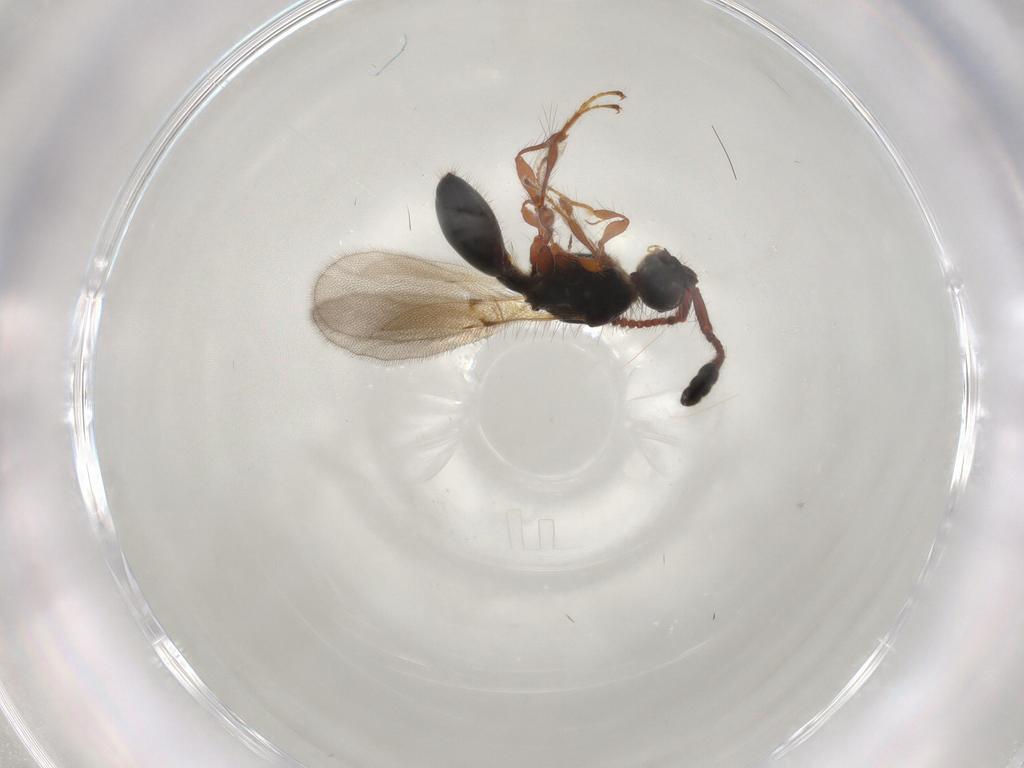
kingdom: Animalia
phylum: Arthropoda
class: Insecta
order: Hymenoptera
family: Diapriidae
